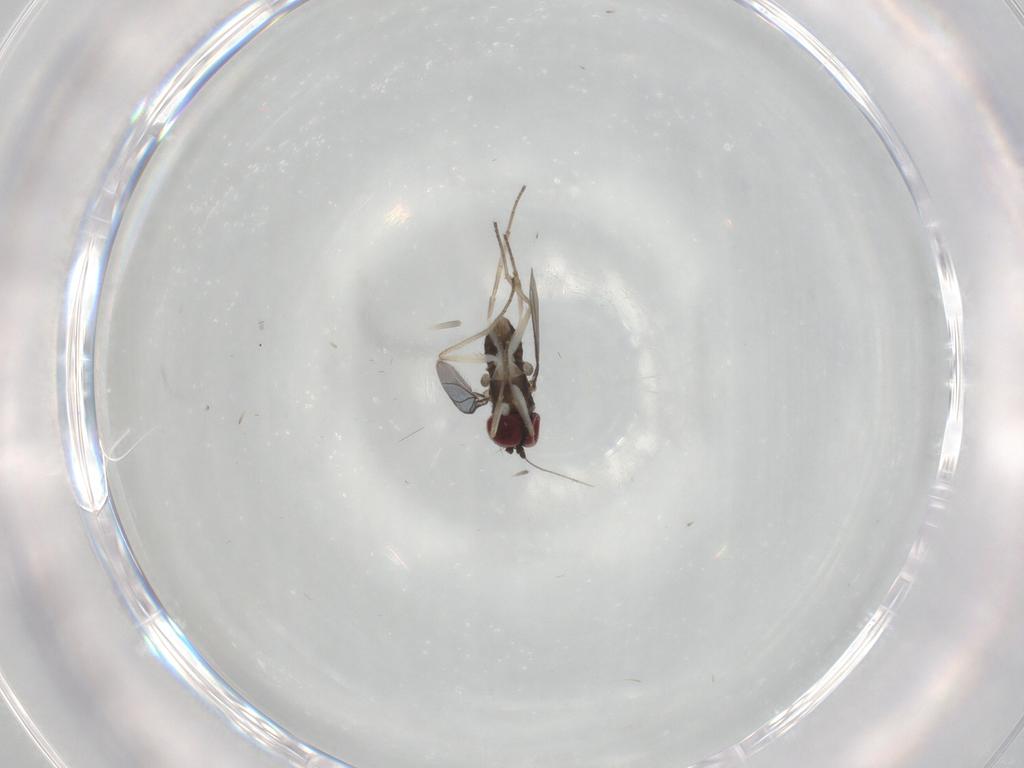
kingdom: Animalia
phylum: Arthropoda
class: Insecta
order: Diptera
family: Dolichopodidae
